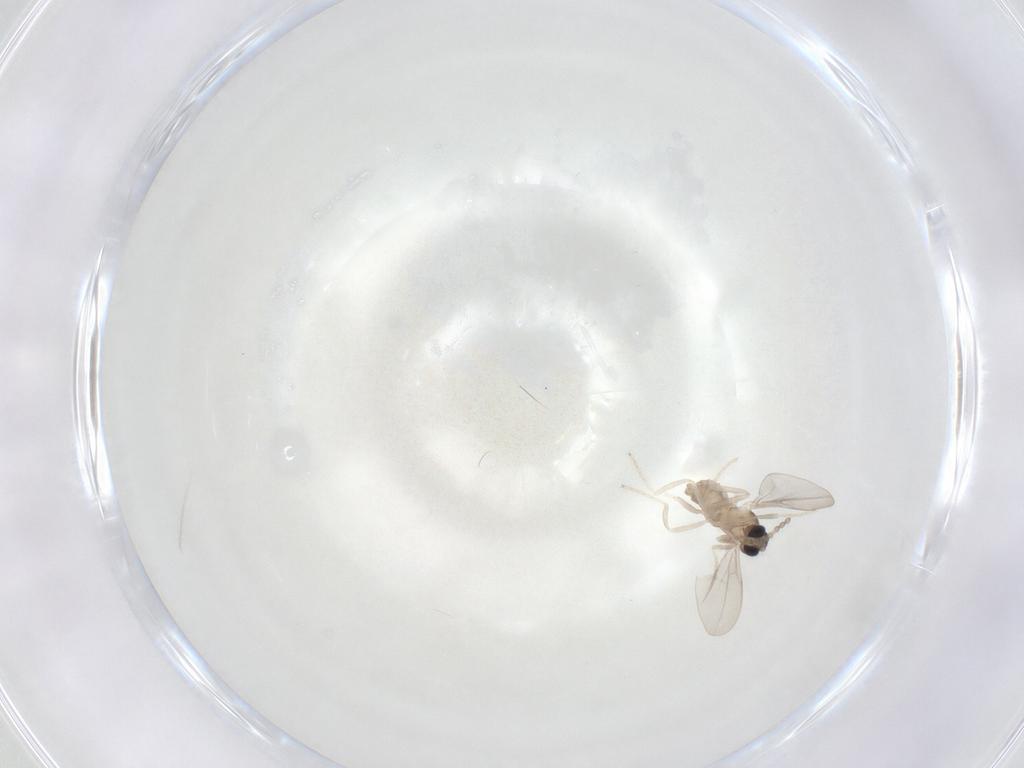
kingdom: Animalia
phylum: Arthropoda
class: Insecta
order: Diptera
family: Cecidomyiidae
